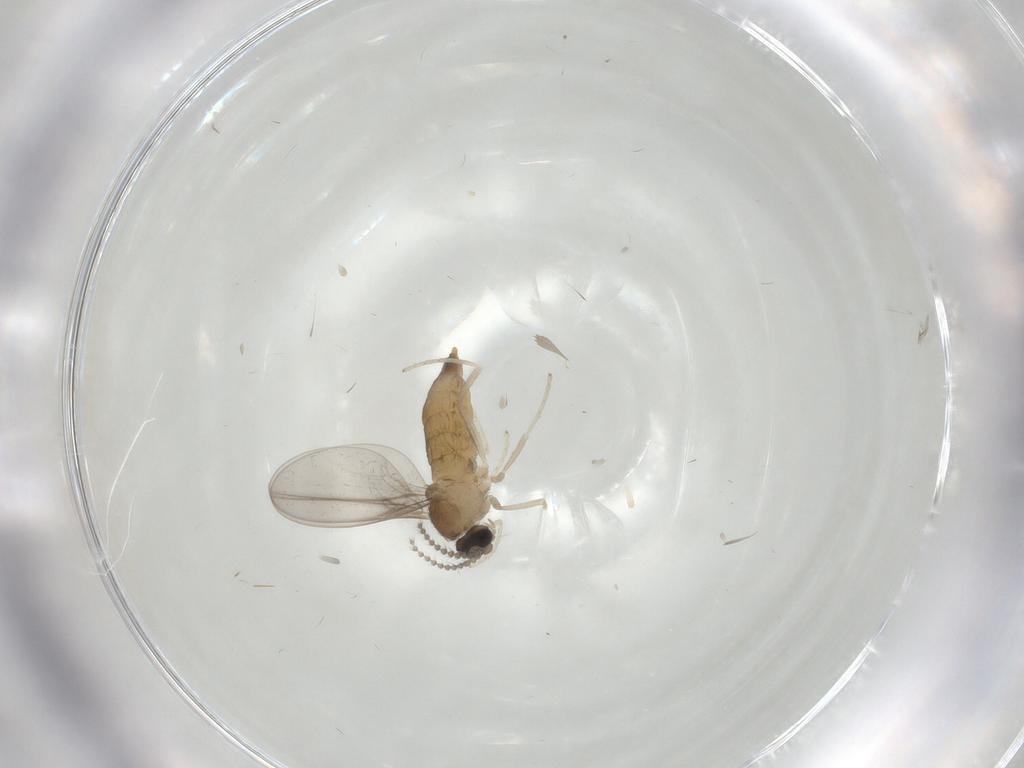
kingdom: Animalia
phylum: Arthropoda
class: Insecta
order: Diptera
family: Cecidomyiidae
